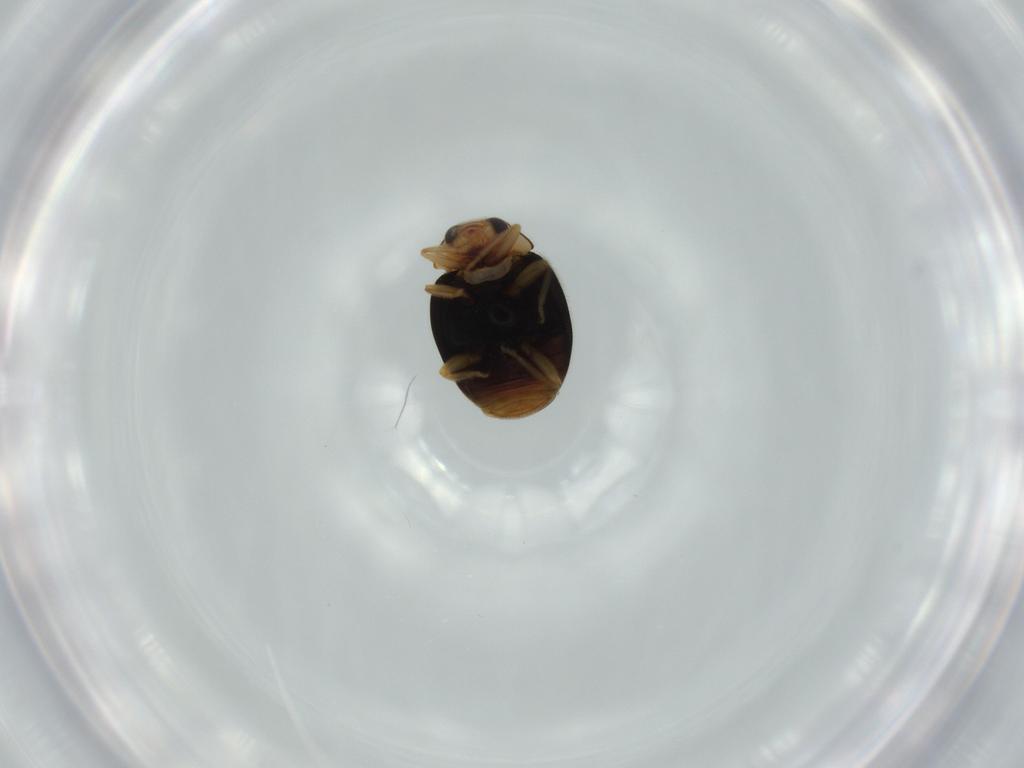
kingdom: Animalia
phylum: Arthropoda
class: Insecta
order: Coleoptera
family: Coccinellidae
